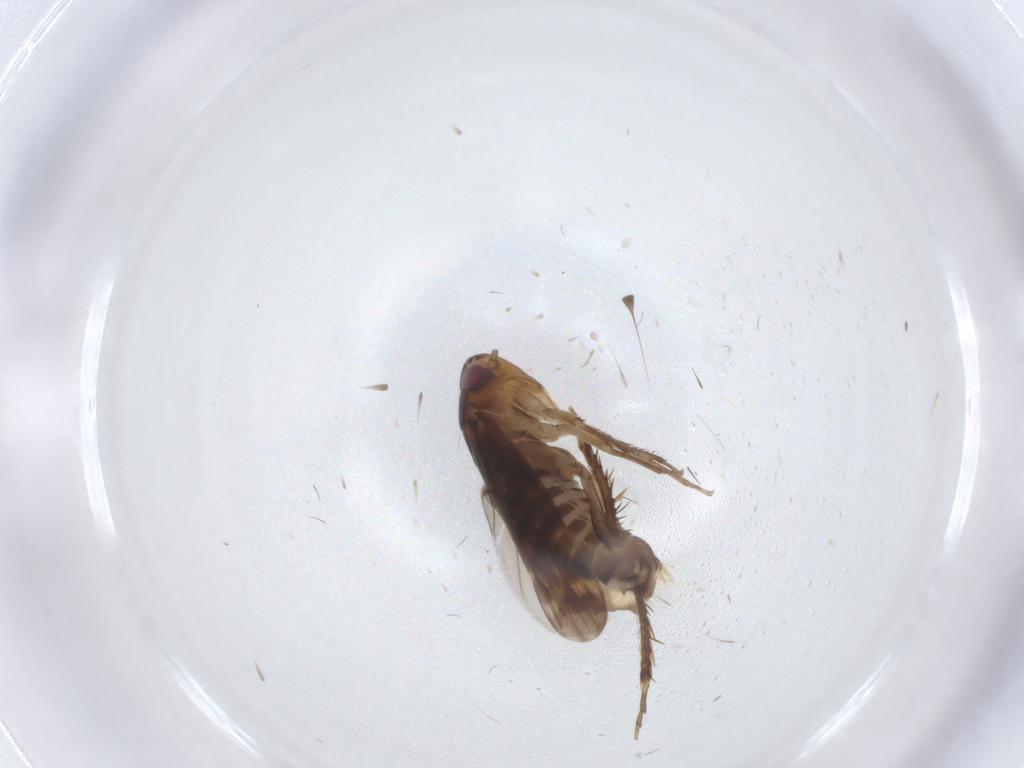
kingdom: Animalia
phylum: Arthropoda
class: Insecta
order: Hemiptera
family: Cicadellidae
